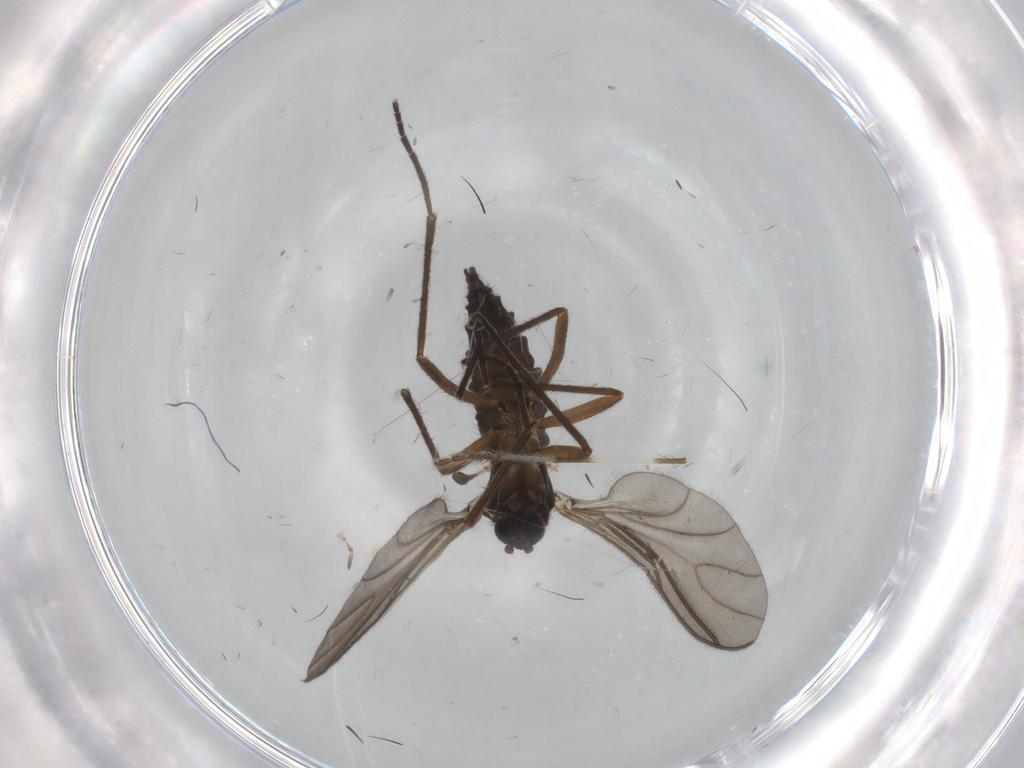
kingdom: Animalia
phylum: Arthropoda
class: Insecta
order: Diptera
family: Sciaridae
